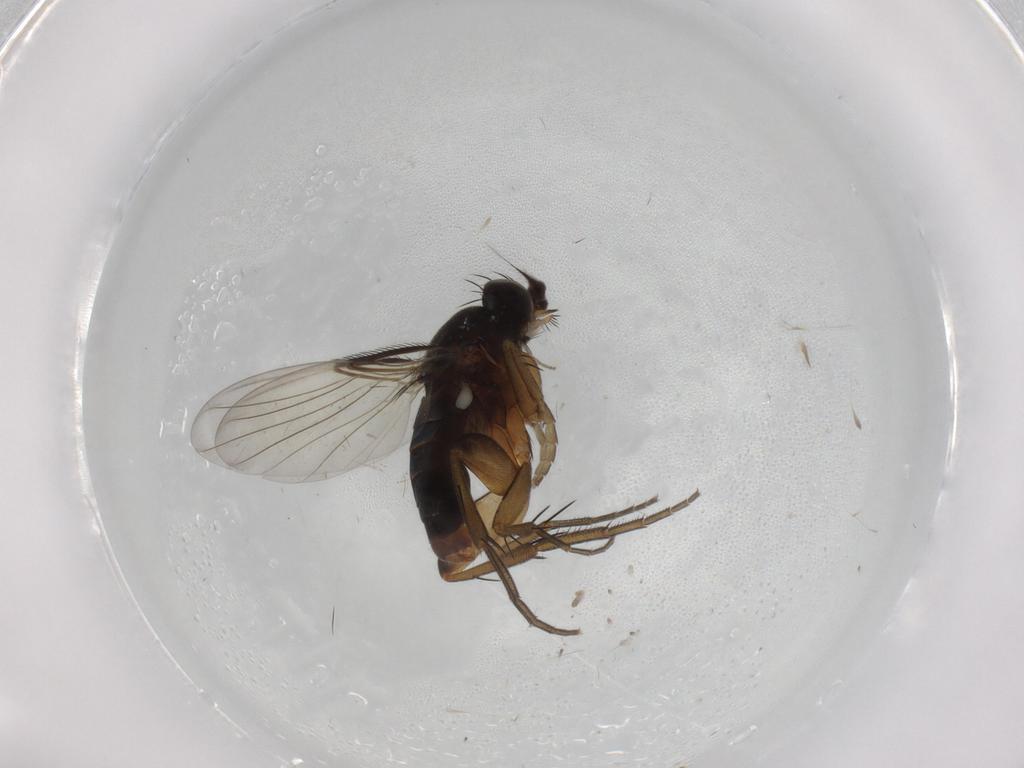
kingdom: Animalia
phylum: Arthropoda
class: Insecta
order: Diptera
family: Phoridae
